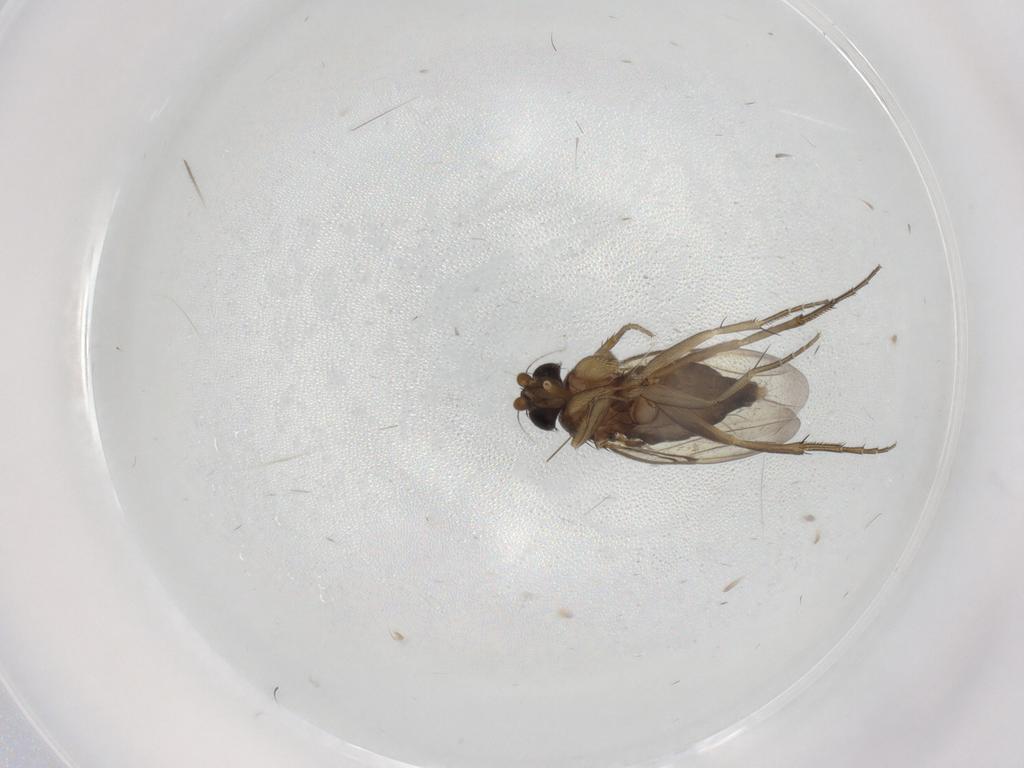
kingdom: Animalia
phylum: Arthropoda
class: Insecta
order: Diptera
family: Phoridae
